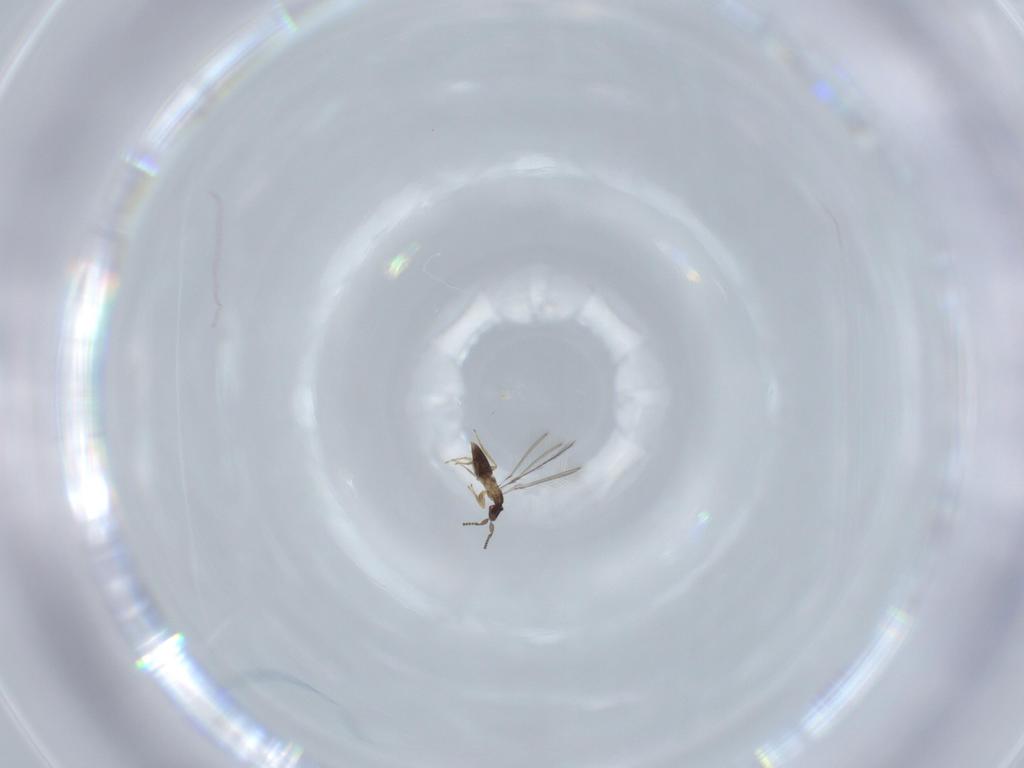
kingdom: Animalia
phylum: Arthropoda
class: Insecta
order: Hymenoptera
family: Mymaridae
